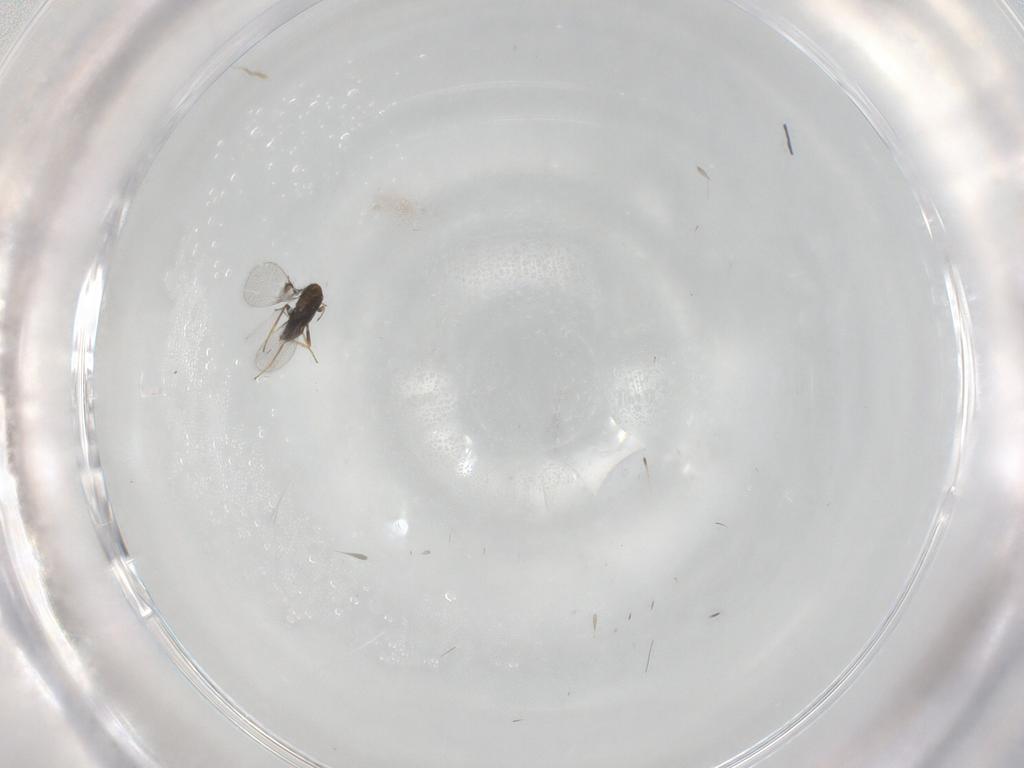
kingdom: Animalia
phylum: Arthropoda
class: Insecta
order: Hymenoptera
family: Trichogrammatidae
